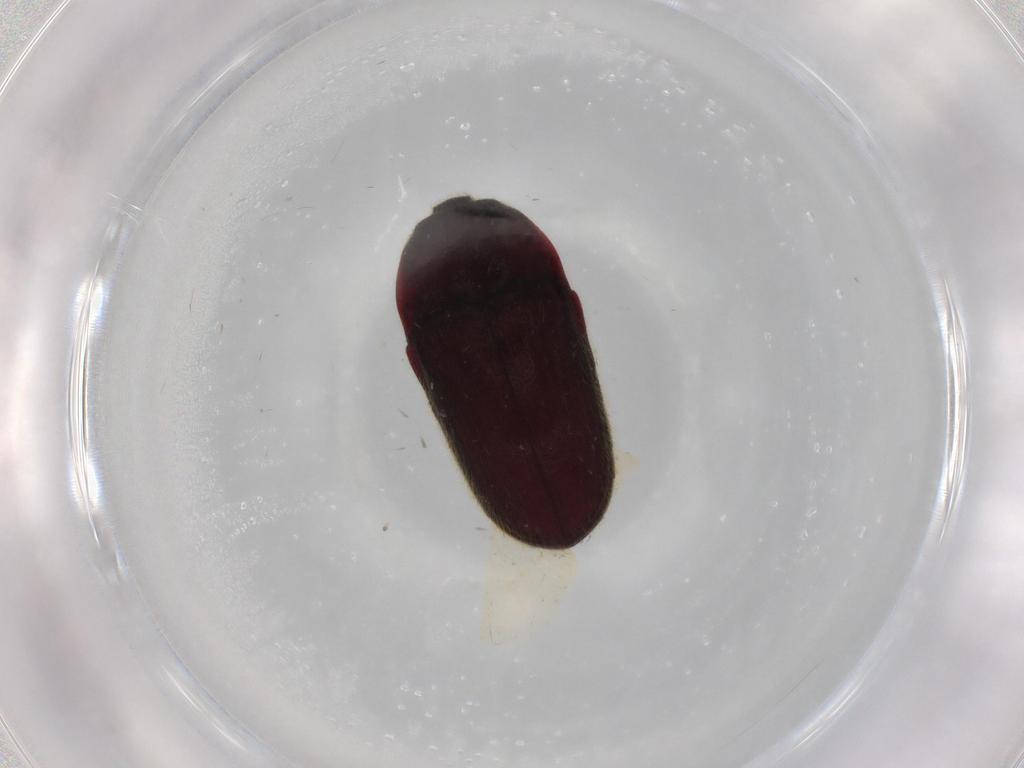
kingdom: Animalia
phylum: Arthropoda
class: Insecta
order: Coleoptera
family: Throscidae
